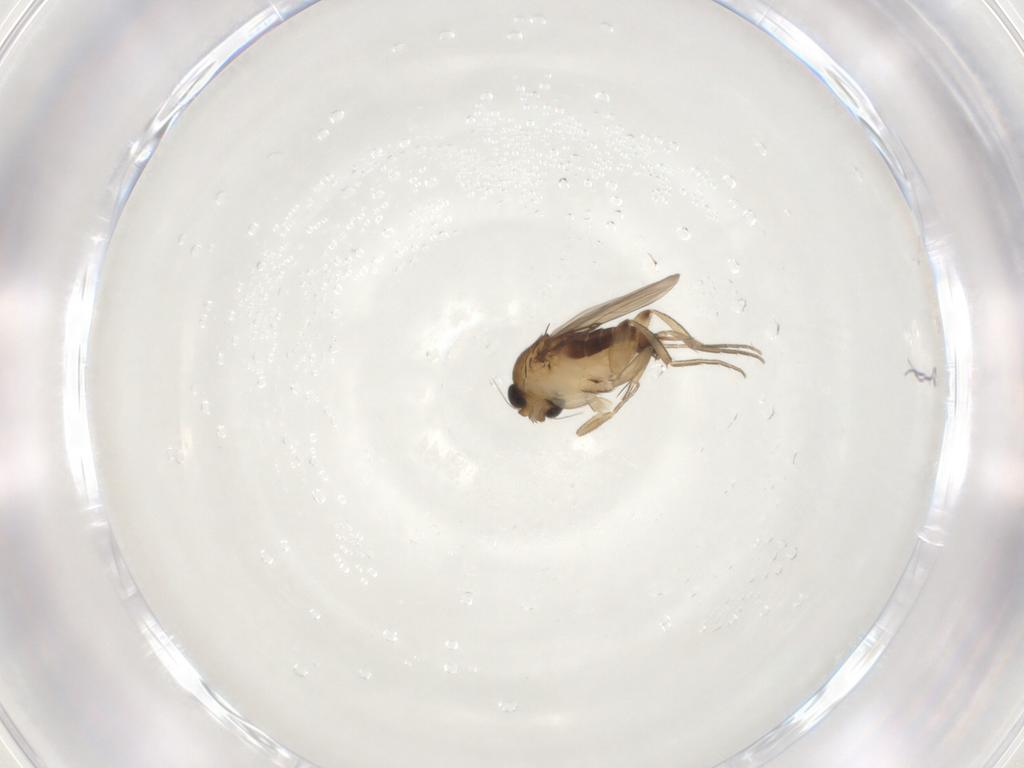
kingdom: Animalia
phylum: Arthropoda
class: Insecta
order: Diptera
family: Phoridae
